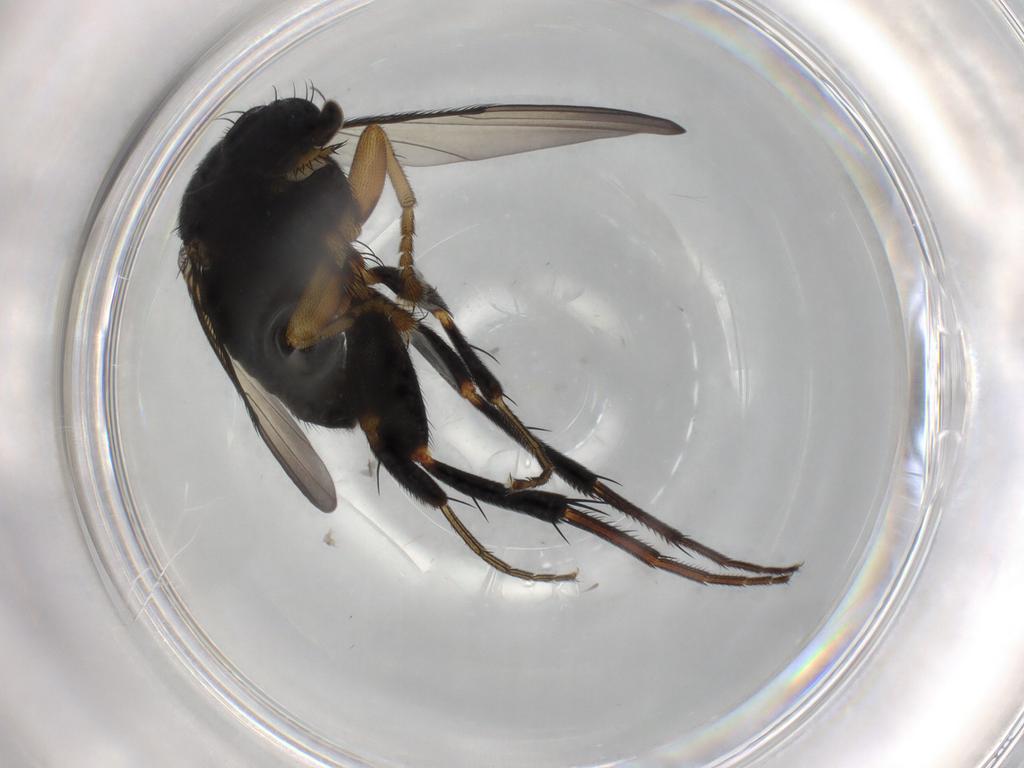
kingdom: Animalia
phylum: Arthropoda
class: Insecta
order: Diptera
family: Phoridae
